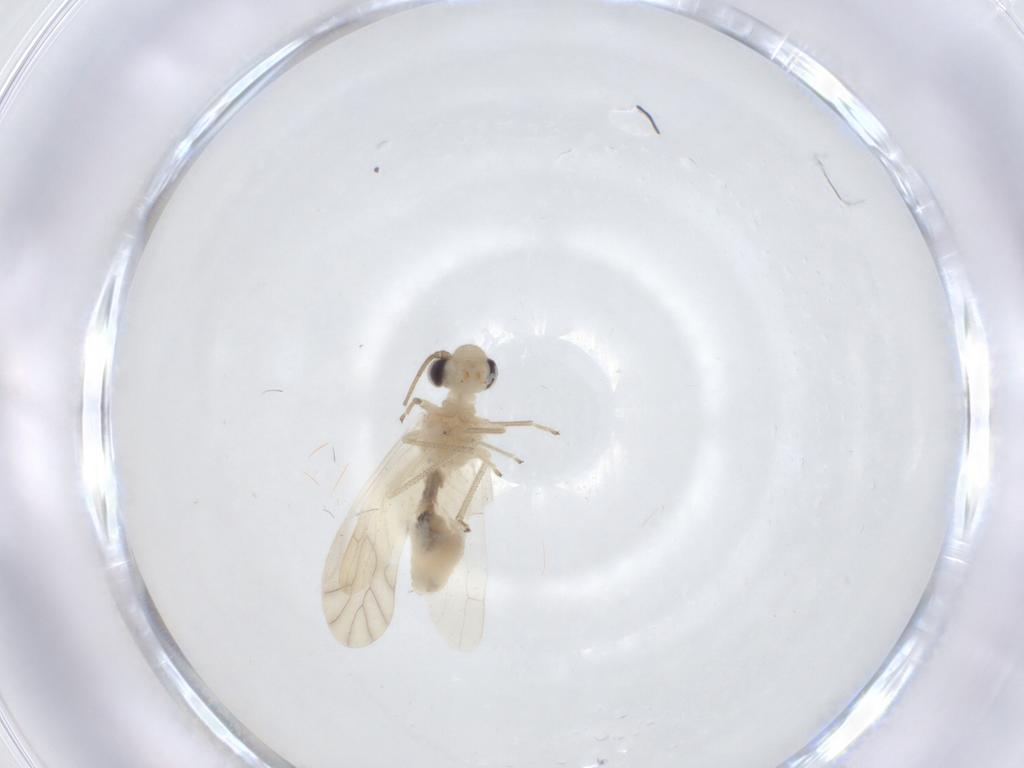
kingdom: Animalia
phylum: Arthropoda
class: Insecta
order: Psocodea
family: Caeciliusidae
